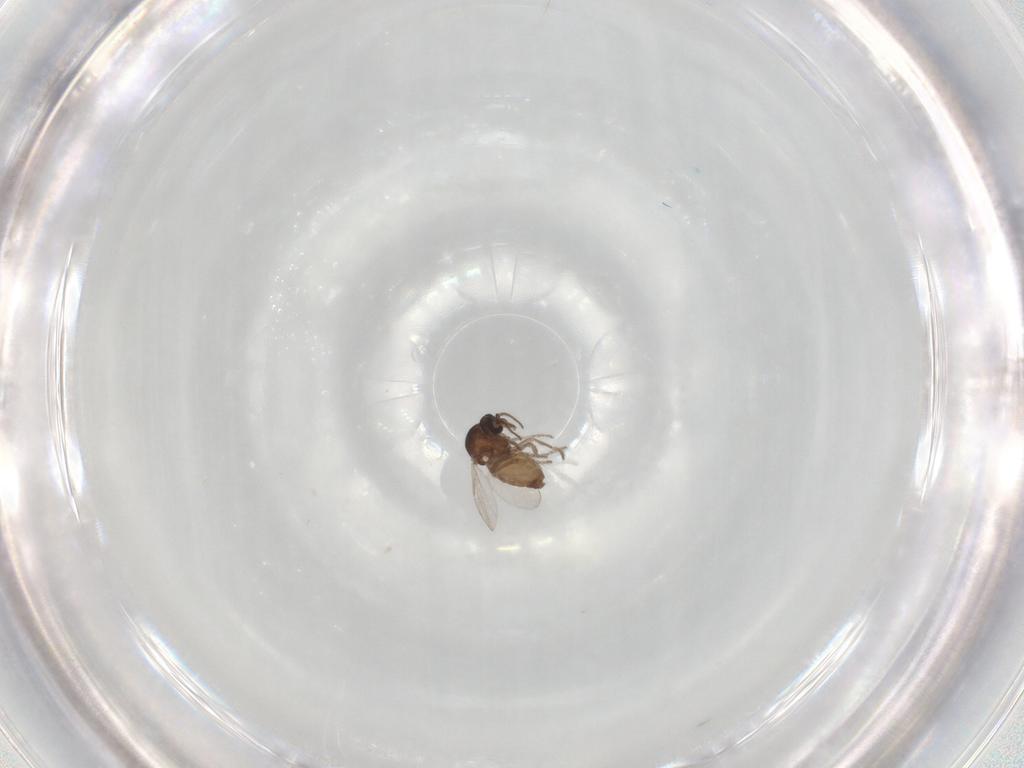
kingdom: Animalia
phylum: Arthropoda
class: Insecta
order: Diptera
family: Ceratopogonidae
